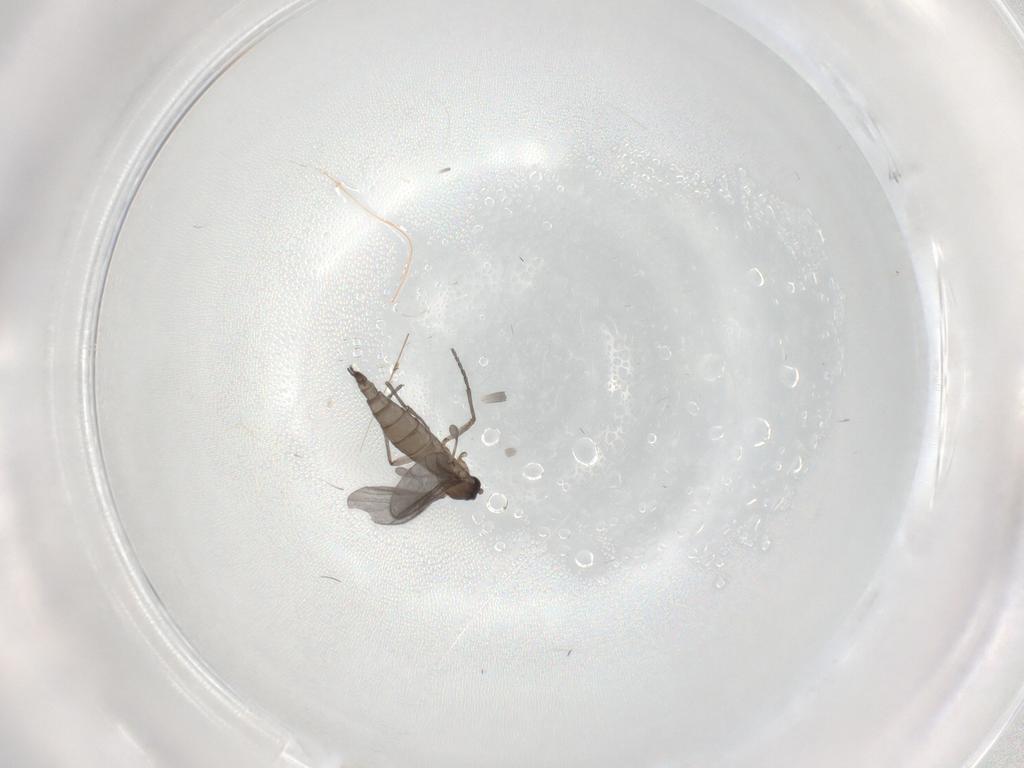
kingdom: Animalia
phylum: Arthropoda
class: Insecta
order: Diptera
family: Sciaridae
